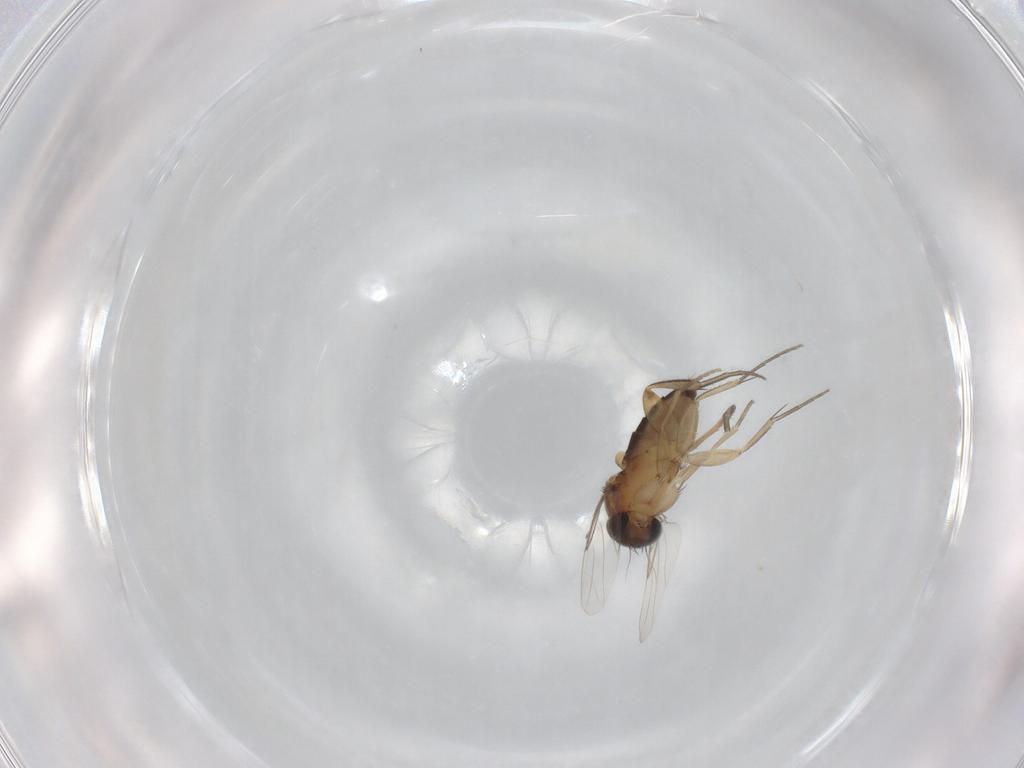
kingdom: Animalia
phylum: Arthropoda
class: Insecta
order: Diptera
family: Phoridae
